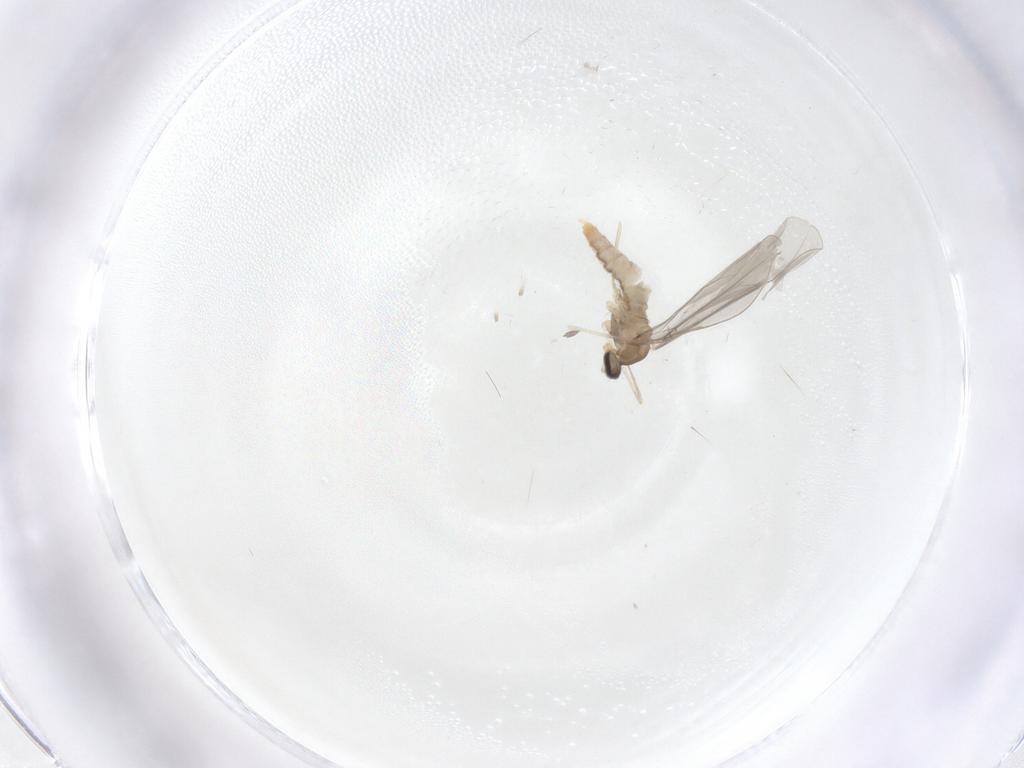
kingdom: Animalia
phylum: Arthropoda
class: Insecta
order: Diptera
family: Cecidomyiidae
